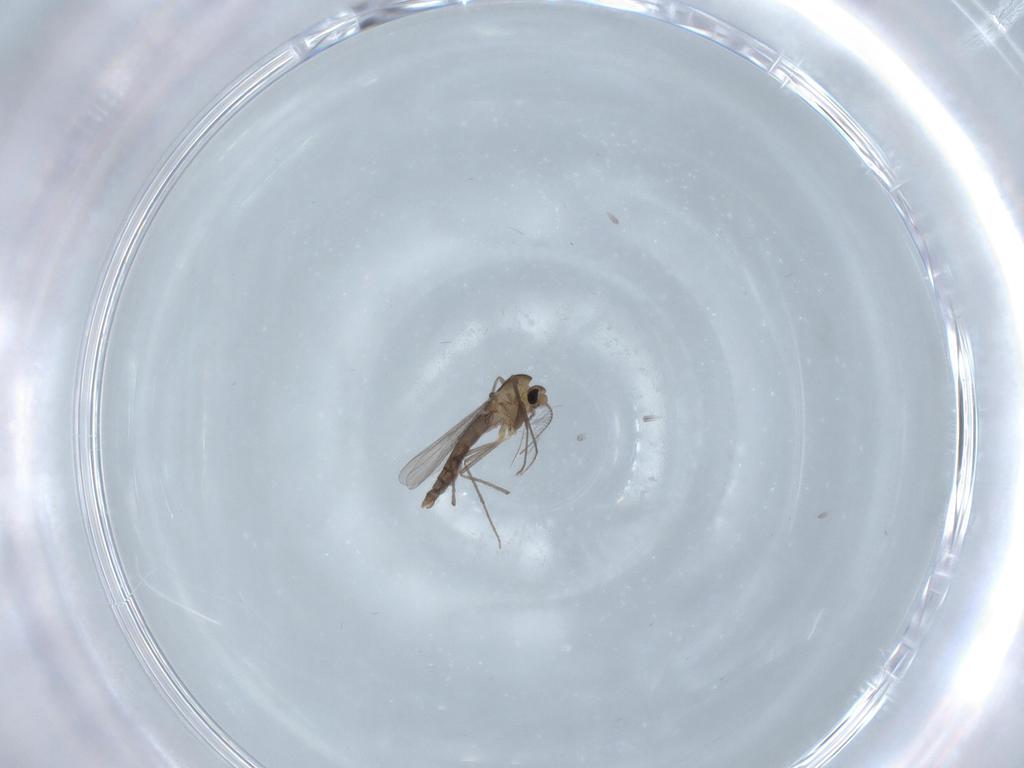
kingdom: Animalia
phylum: Arthropoda
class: Insecta
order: Diptera
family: Chironomidae
